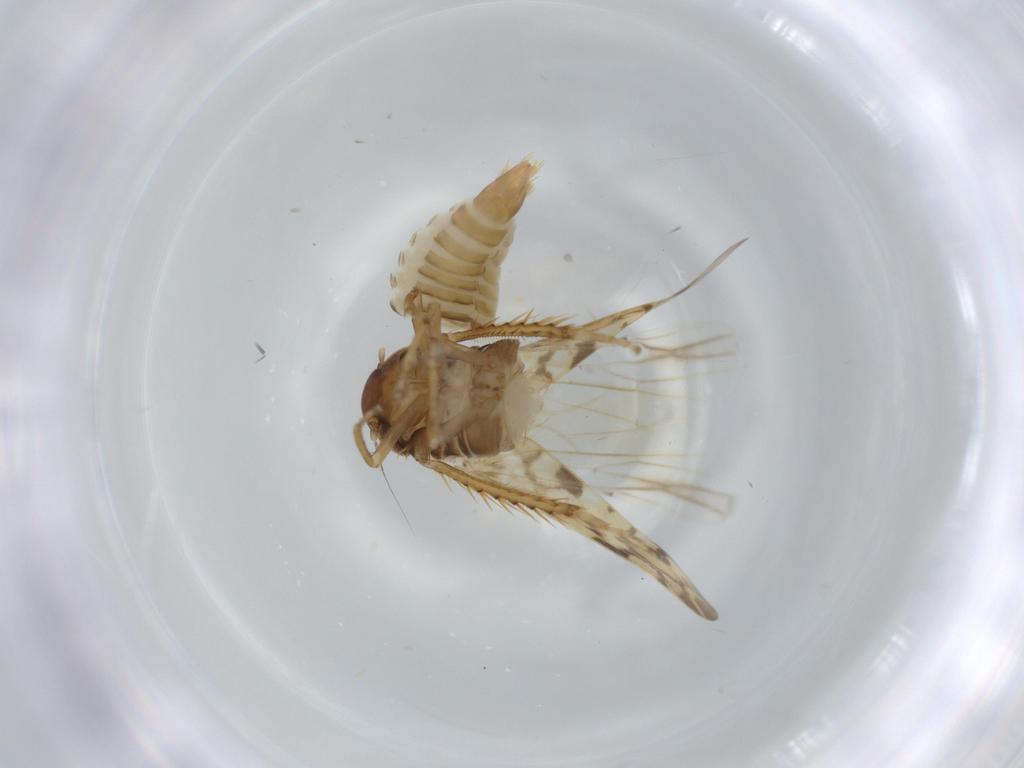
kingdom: Animalia
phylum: Arthropoda
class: Insecta
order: Hemiptera
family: Cicadellidae
